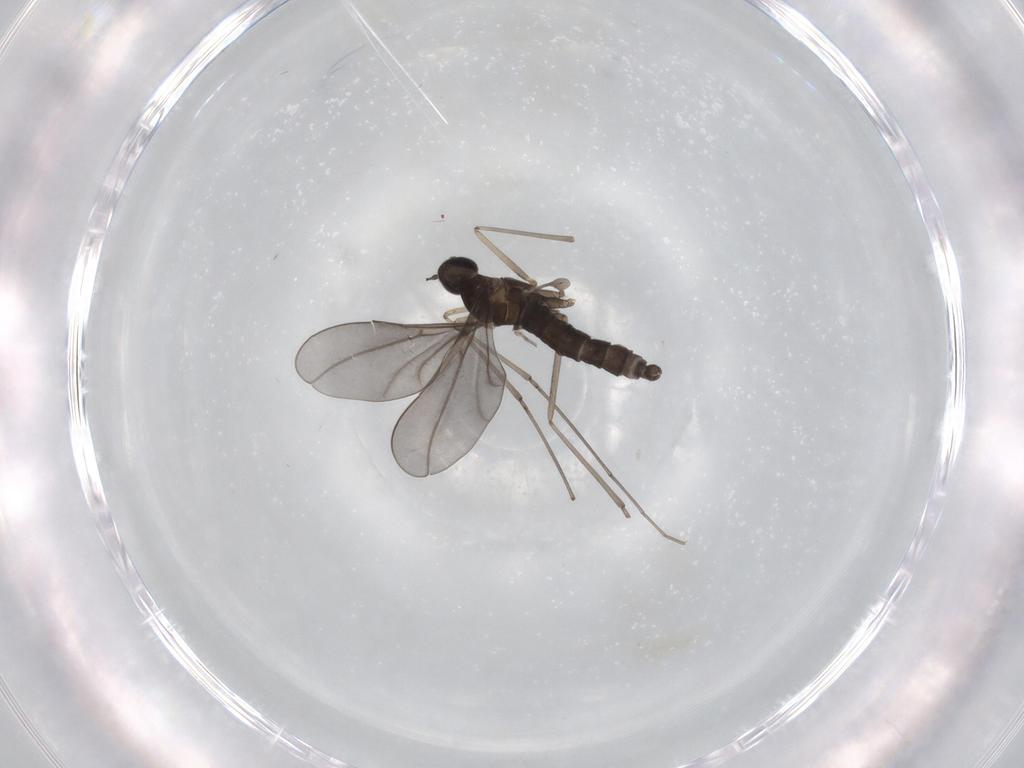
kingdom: Animalia
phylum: Arthropoda
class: Insecta
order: Diptera
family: Cecidomyiidae
